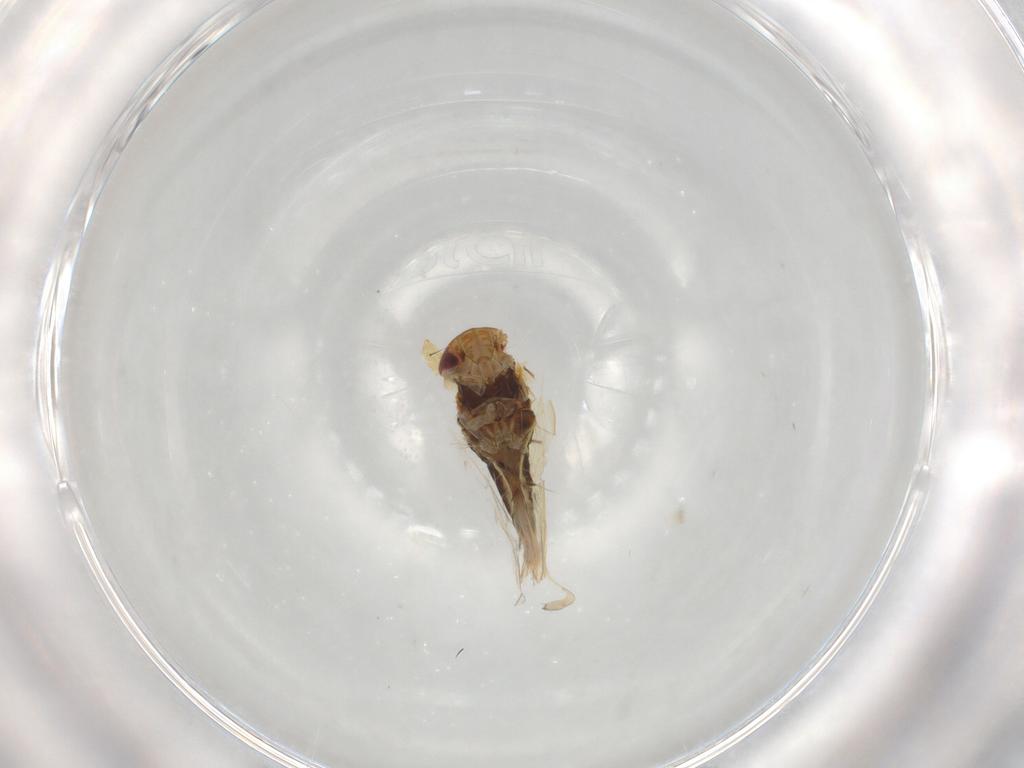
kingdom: Animalia
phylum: Arthropoda
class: Insecta
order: Hemiptera
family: Cicadellidae
